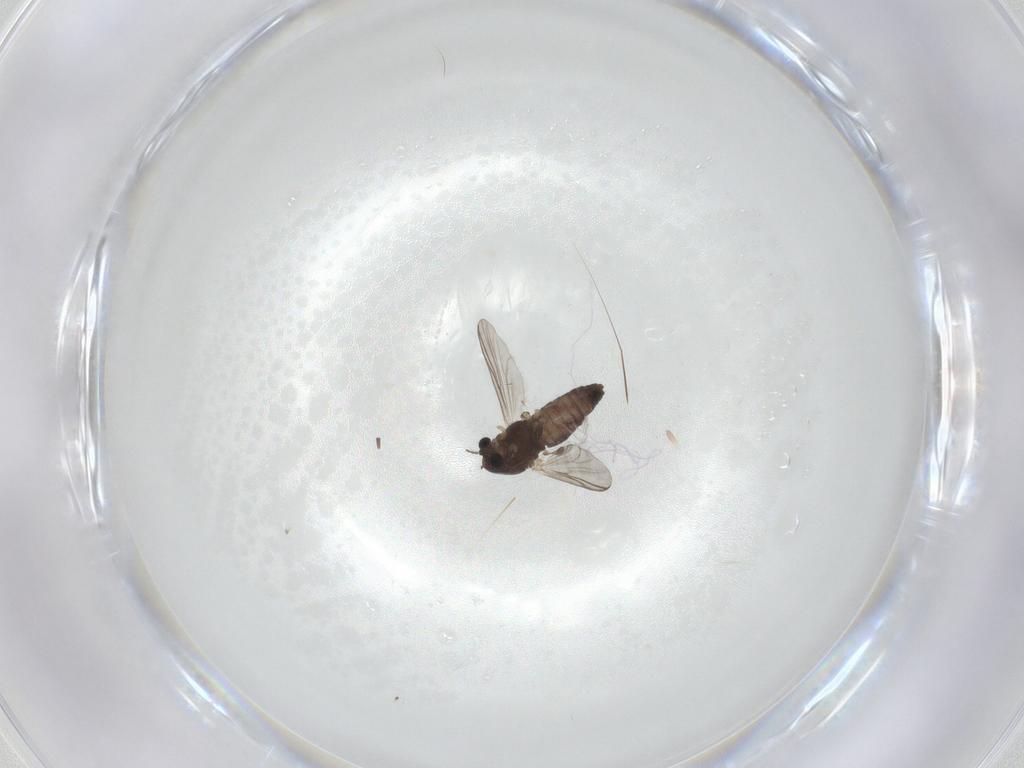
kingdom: Animalia
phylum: Arthropoda
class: Insecta
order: Diptera
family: Chironomidae
